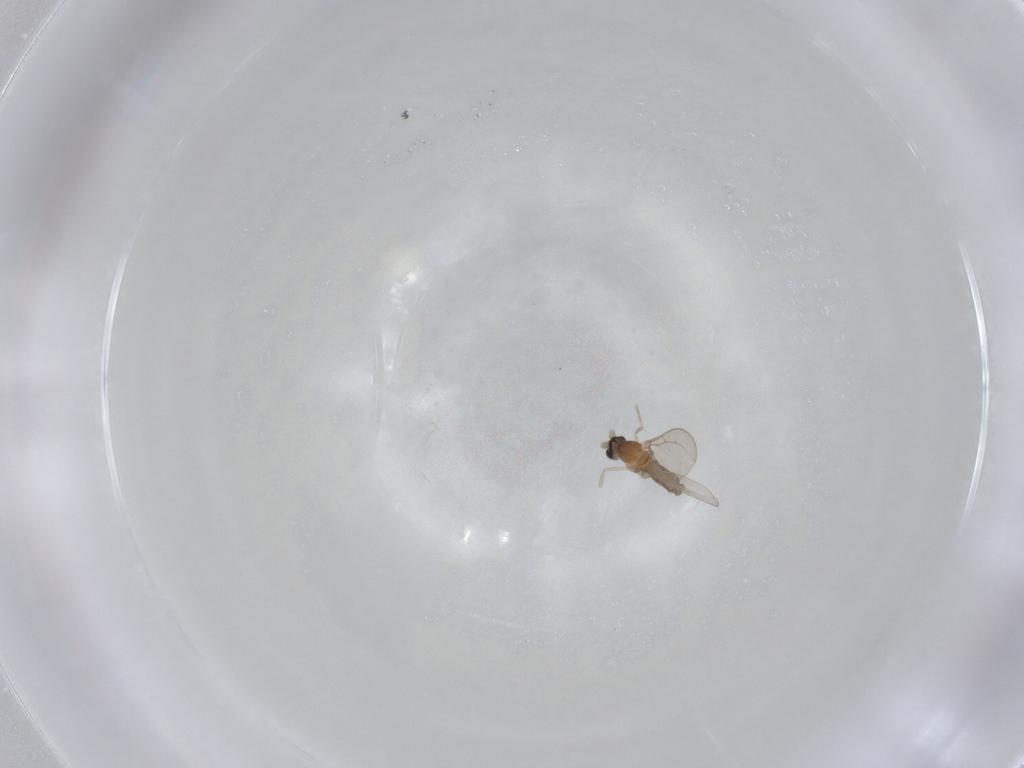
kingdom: Animalia
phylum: Arthropoda
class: Insecta
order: Diptera
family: Cecidomyiidae
